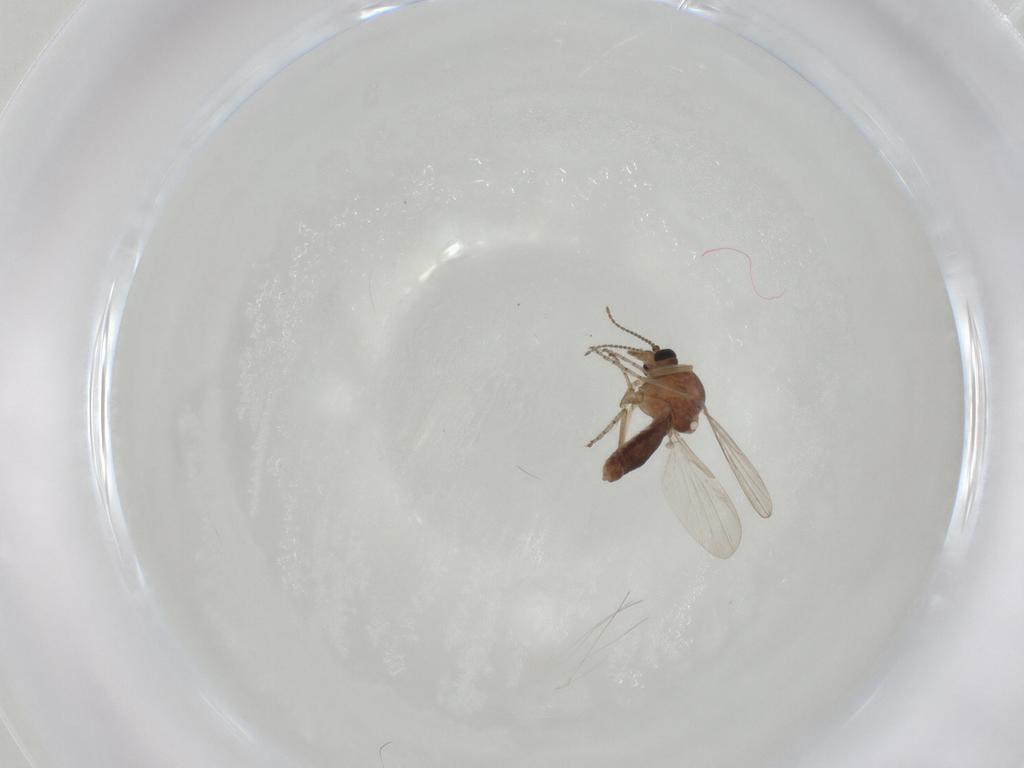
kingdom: Animalia
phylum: Arthropoda
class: Insecta
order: Diptera
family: Ceratopogonidae
